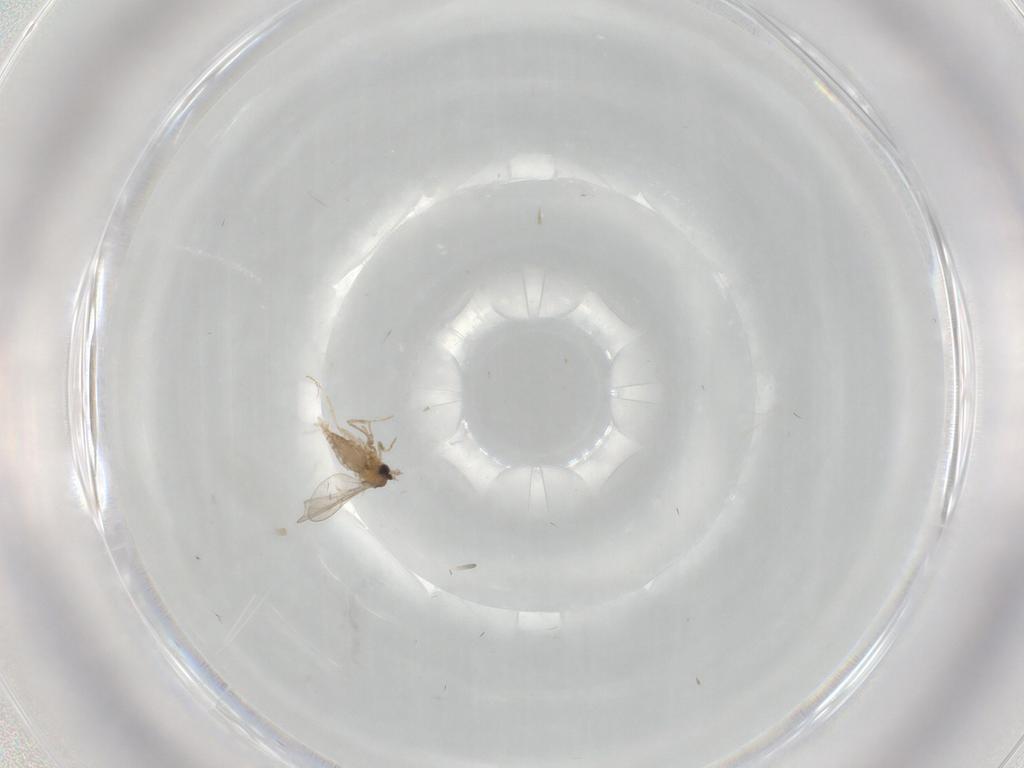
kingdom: Animalia
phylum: Arthropoda
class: Insecta
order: Diptera
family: Cecidomyiidae
